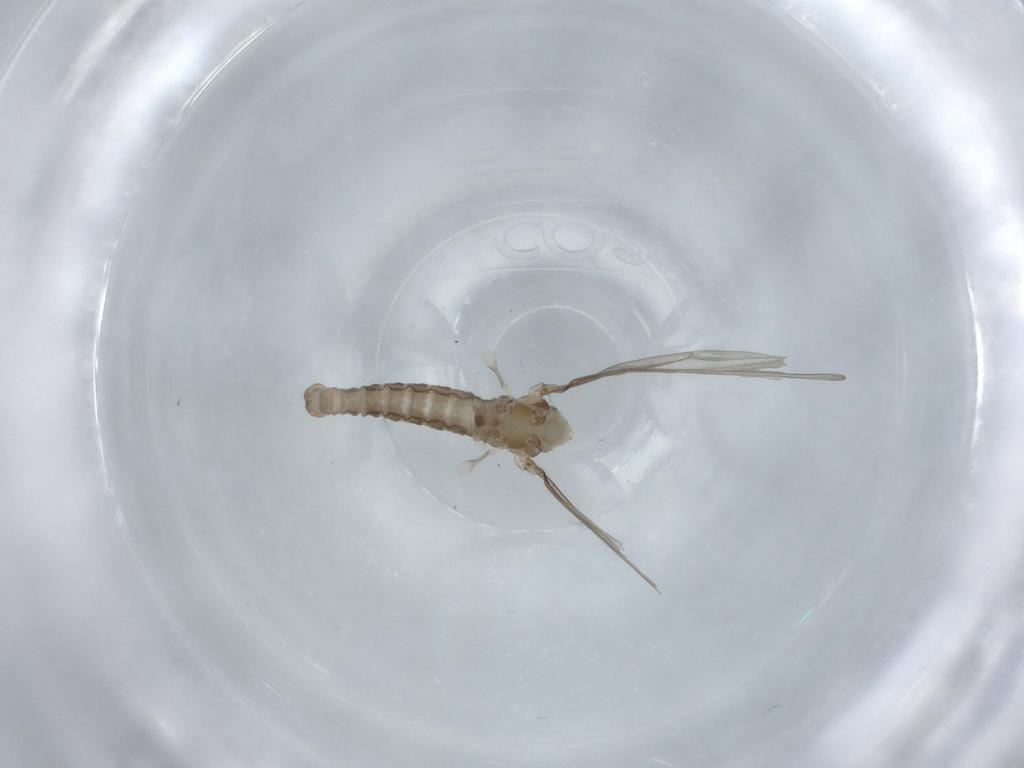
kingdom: Animalia
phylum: Arthropoda
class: Insecta
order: Diptera
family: Cecidomyiidae
